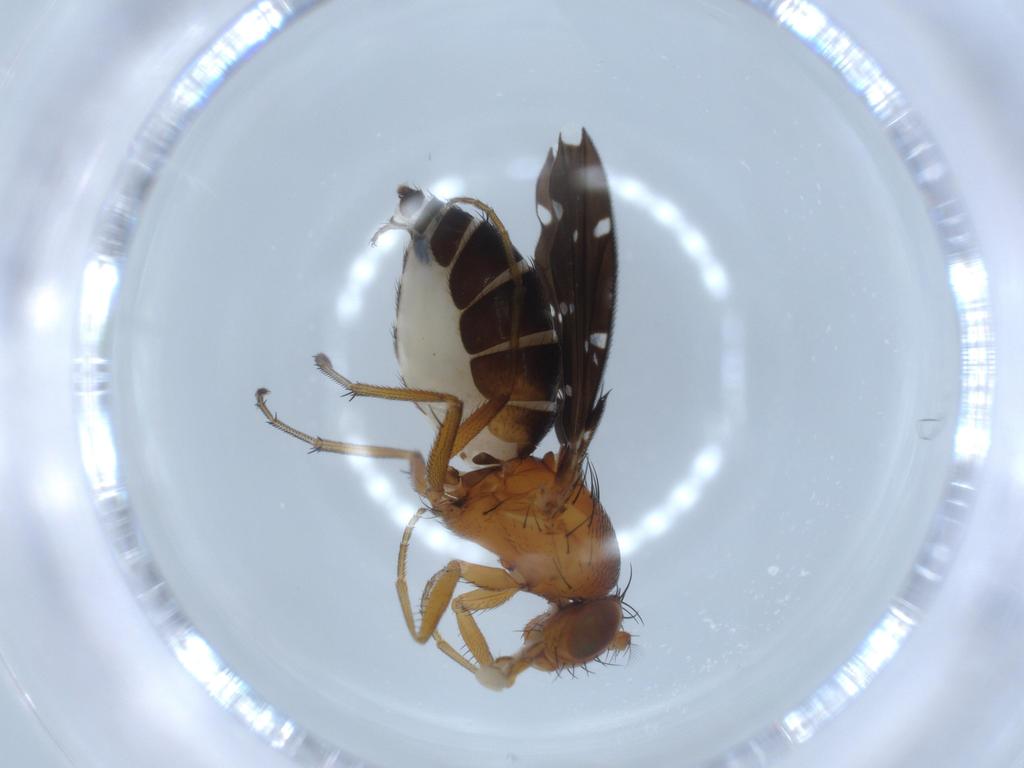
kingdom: Animalia
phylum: Arthropoda
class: Insecta
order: Diptera
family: Ephydridae
